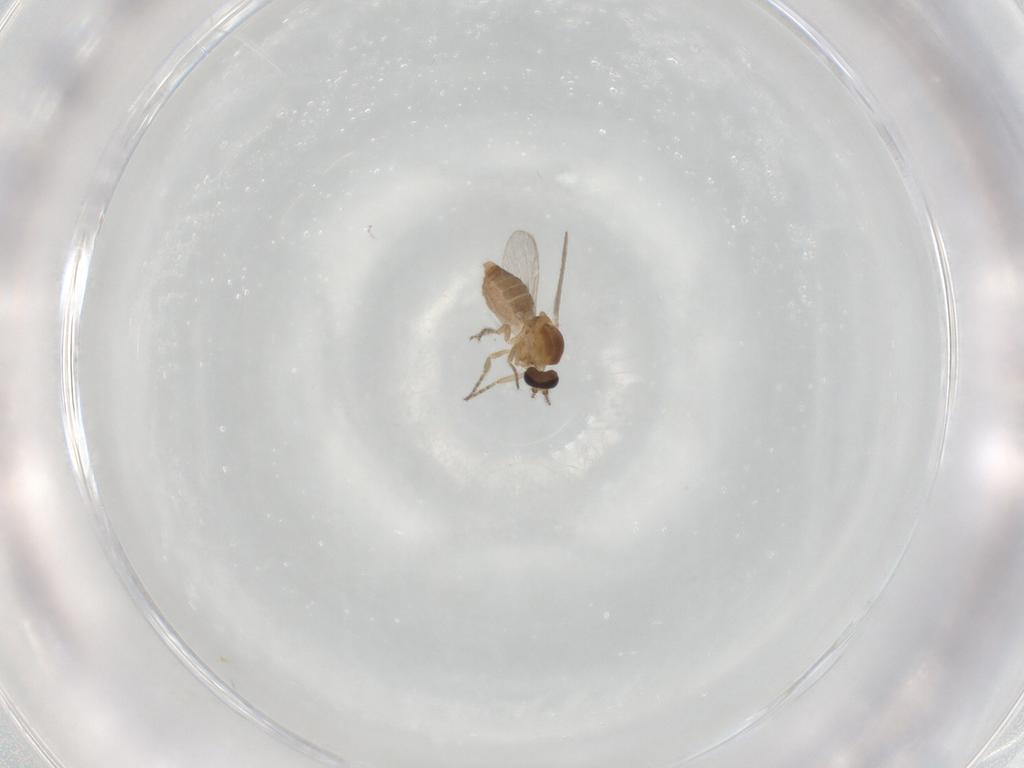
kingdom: Animalia
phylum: Arthropoda
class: Insecta
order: Diptera
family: Ceratopogonidae
